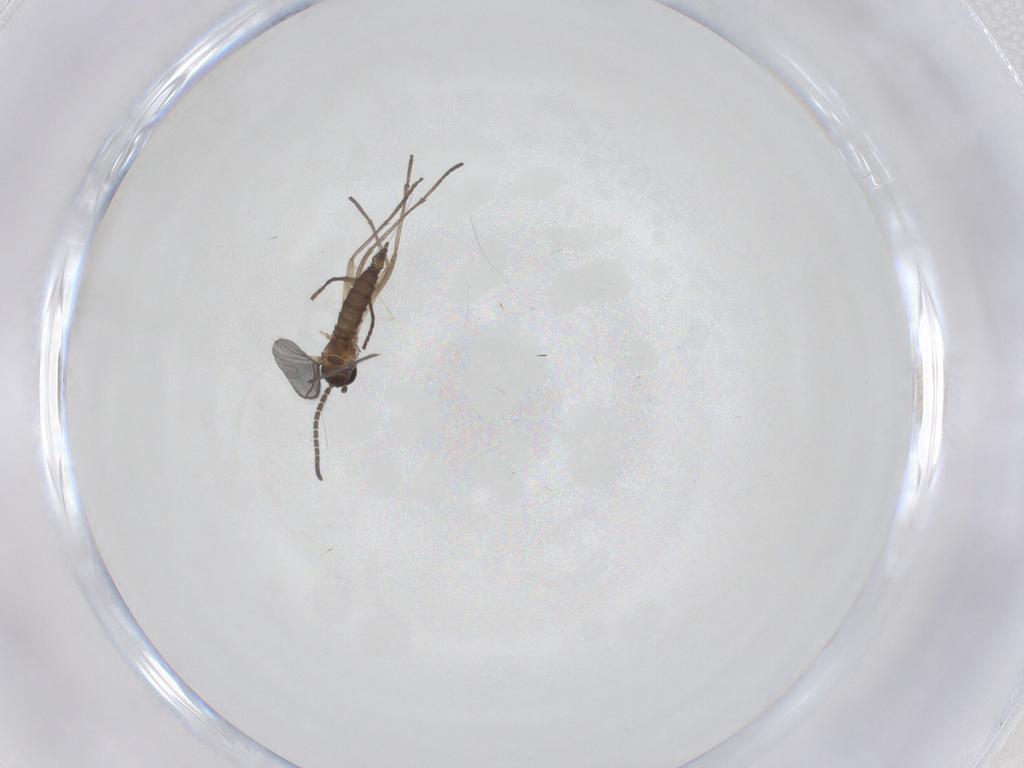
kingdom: Animalia
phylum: Arthropoda
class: Insecta
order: Diptera
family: Sciaridae
